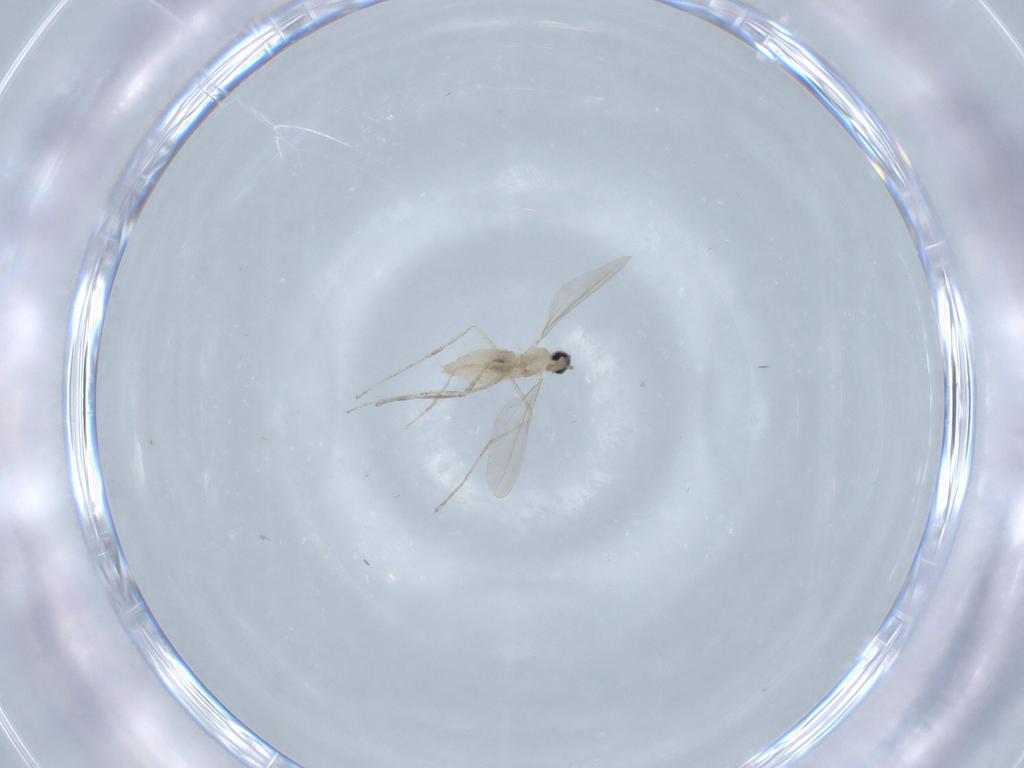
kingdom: Animalia
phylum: Arthropoda
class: Insecta
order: Diptera
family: Cecidomyiidae
